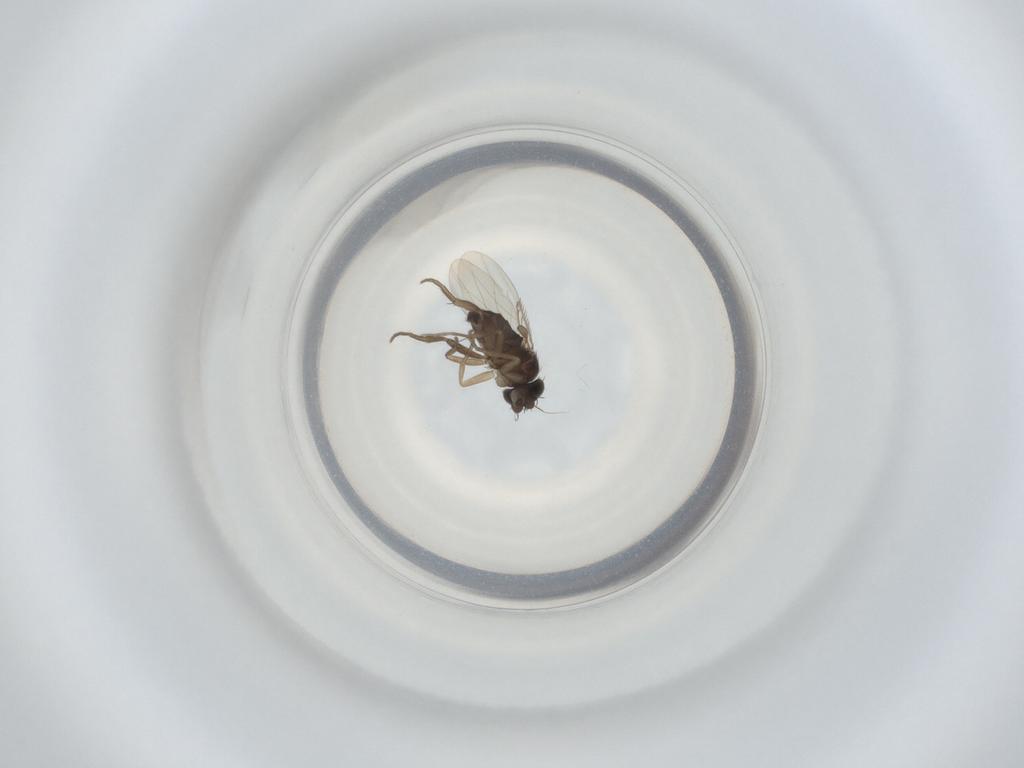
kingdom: Animalia
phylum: Arthropoda
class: Insecta
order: Diptera
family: Phoridae
